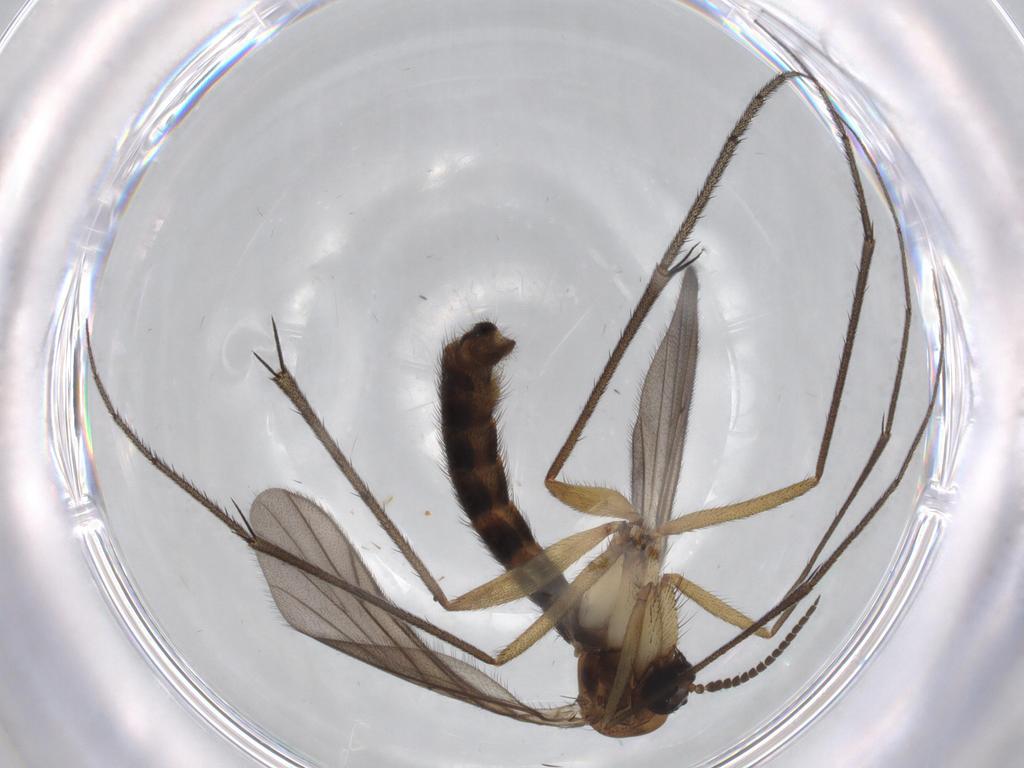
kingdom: Animalia
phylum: Arthropoda
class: Insecta
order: Diptera
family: Ditomyiidae
